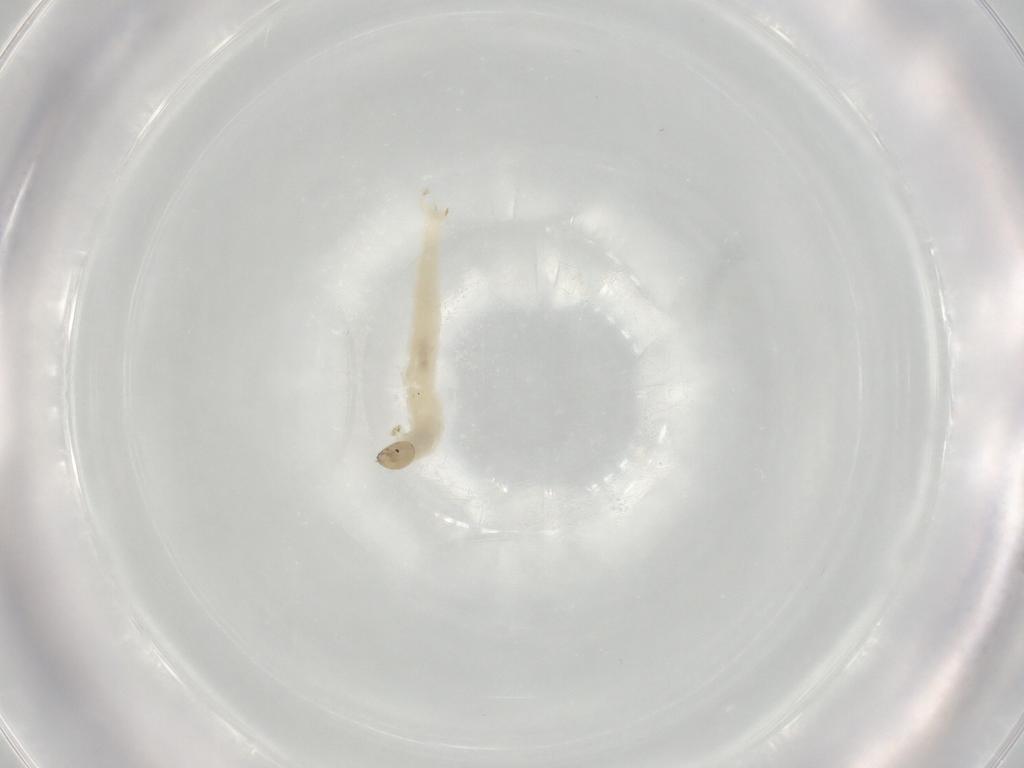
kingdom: Animalia
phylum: Arthropoda
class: Insecta
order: Diptera
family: Chironomidae
